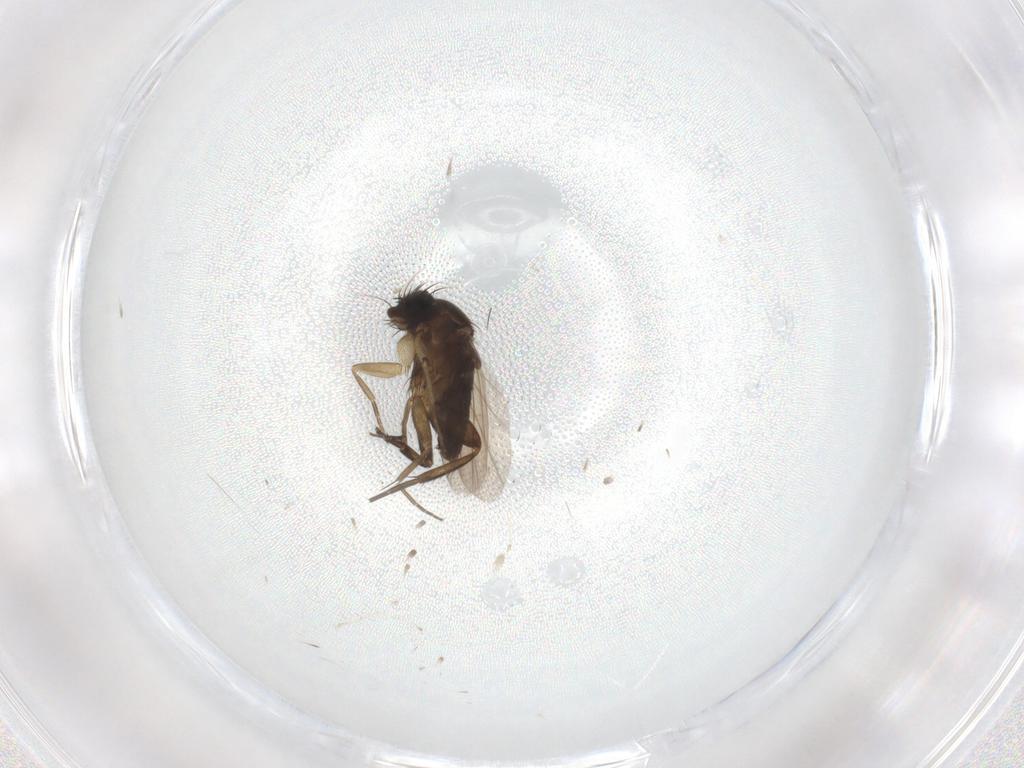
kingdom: Animalia
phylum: Arthropoda
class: Insecta
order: Diptera
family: Phoridae
